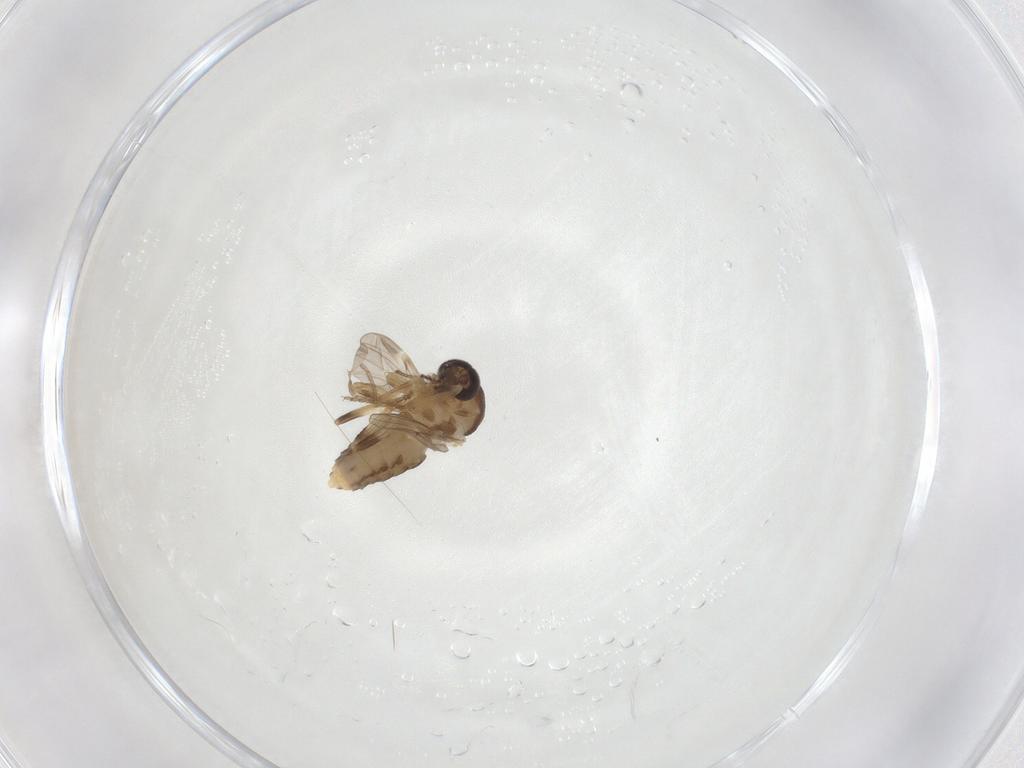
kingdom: Animalia
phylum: Arthropoda
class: Insecta
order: Diptera
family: Ceratopogonidae
